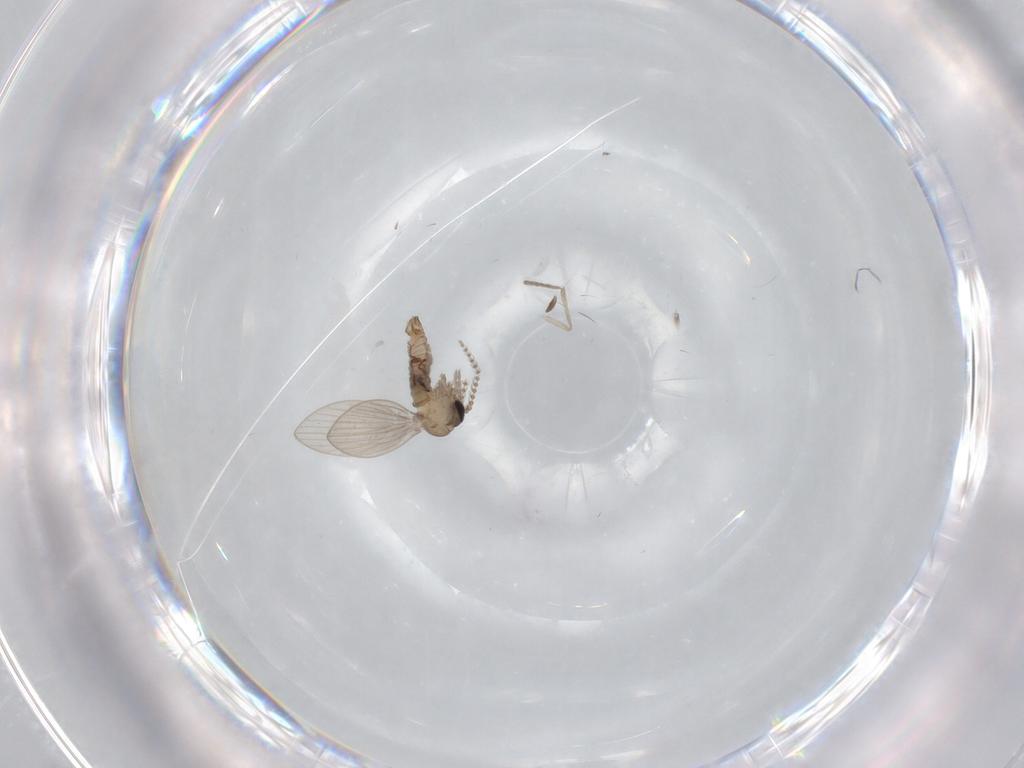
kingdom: Animalia
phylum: Arthropoda
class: Insecta
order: Diptera
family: Psychodidae
